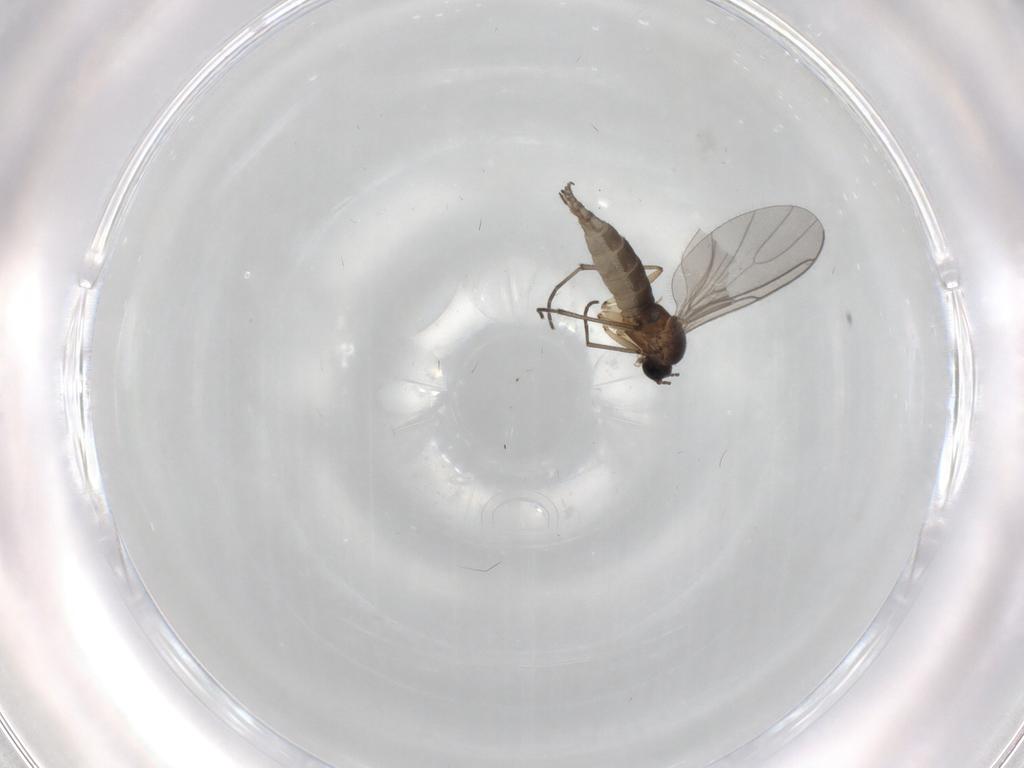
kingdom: Animalia
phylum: Arthropoda
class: Insecta
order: Diptera
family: Sciaridae
